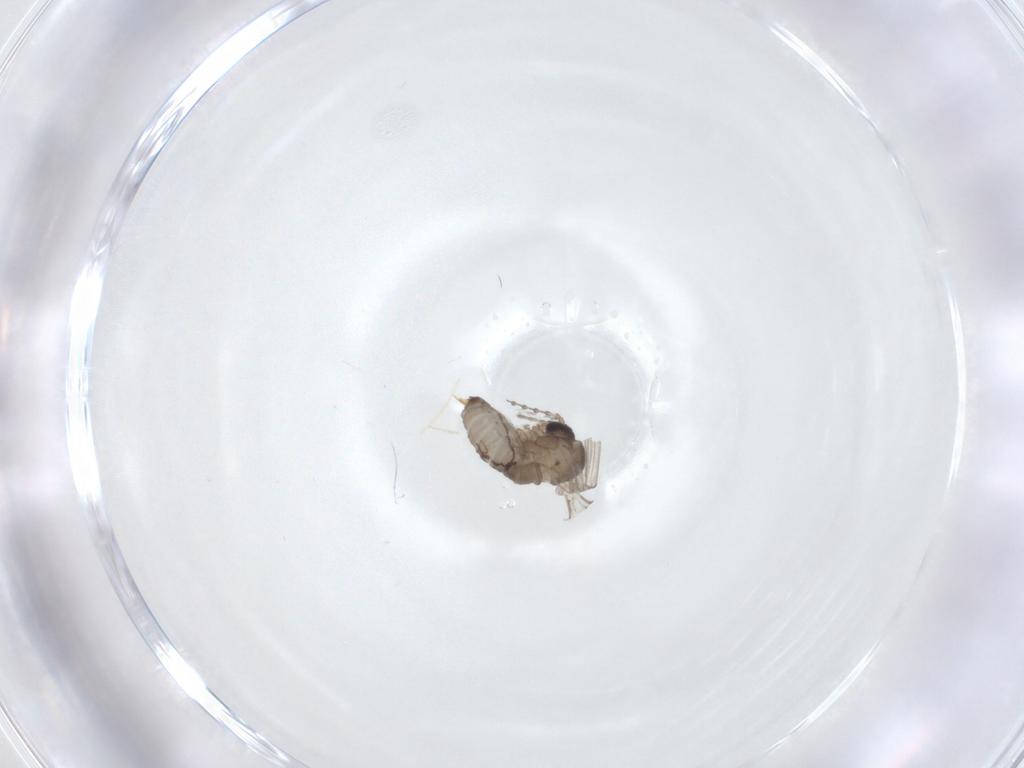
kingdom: Animalia
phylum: Arthropoda
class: Insecta
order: Diptera
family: Psychodidae
